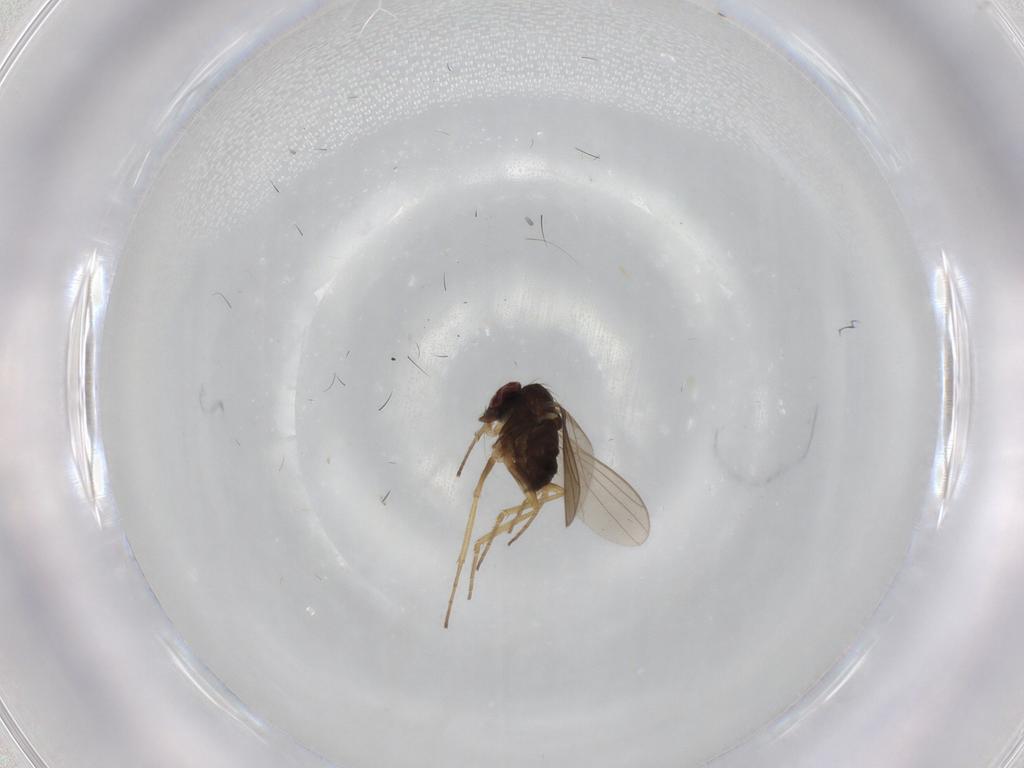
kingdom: Animalia
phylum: Arthropoda
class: Insecta
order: Diptera
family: Dolichopodidae
